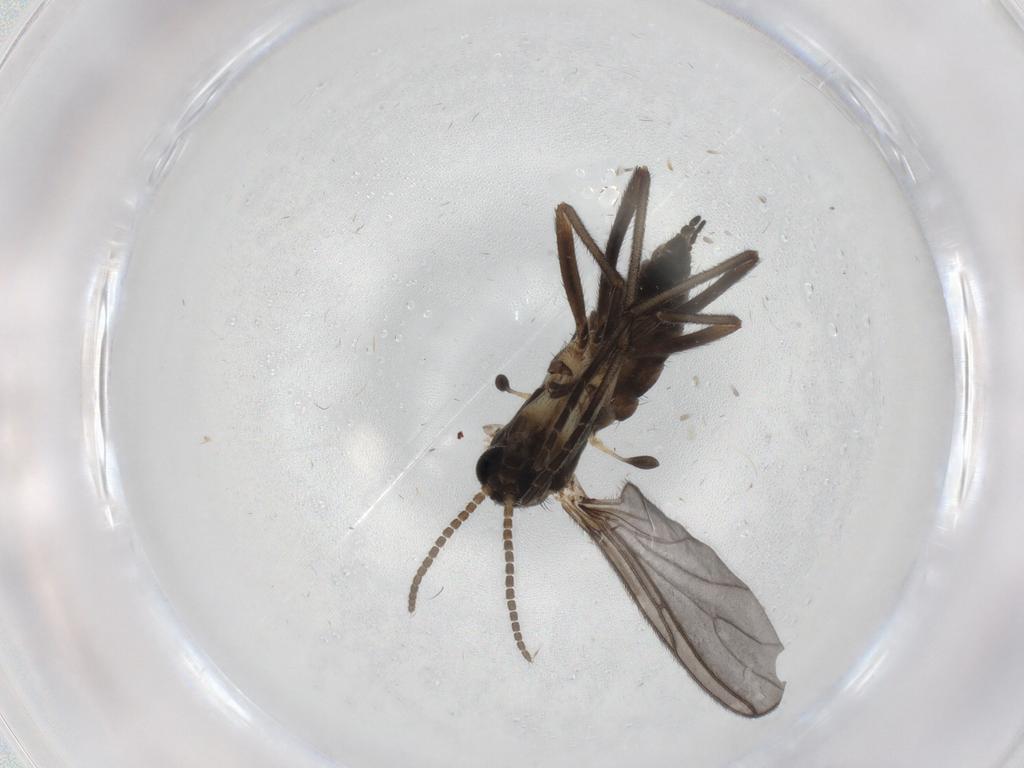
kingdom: Animalia
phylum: Arthropoda
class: Insecta
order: Diptera
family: Sciaridae
